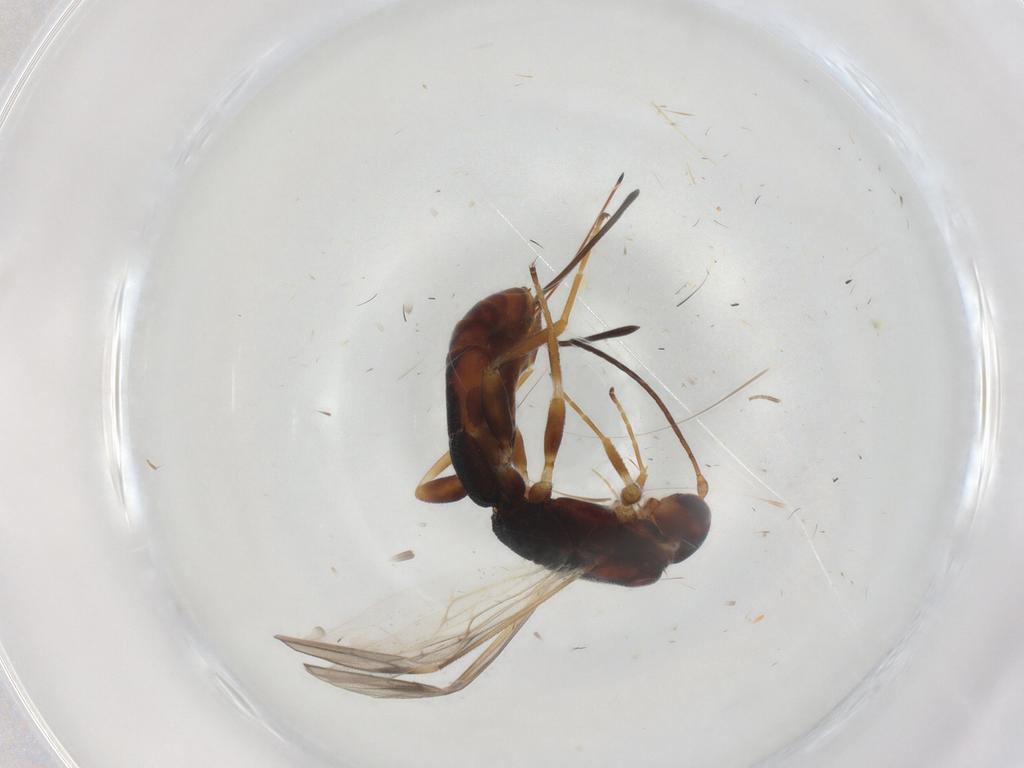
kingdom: Animalia
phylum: Arthropoda
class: Insecta
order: Hymenoptera
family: Braconidae
